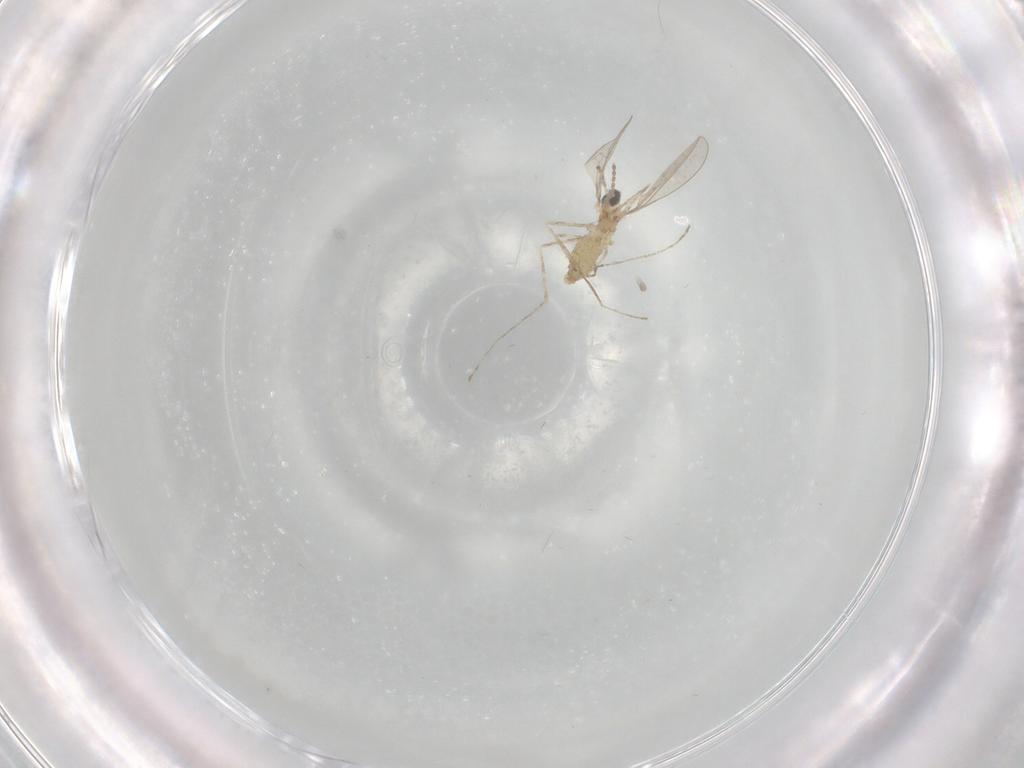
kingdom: Animalia
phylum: Arthropoda
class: Insecta
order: Diptera
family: Cecidomyiidae
